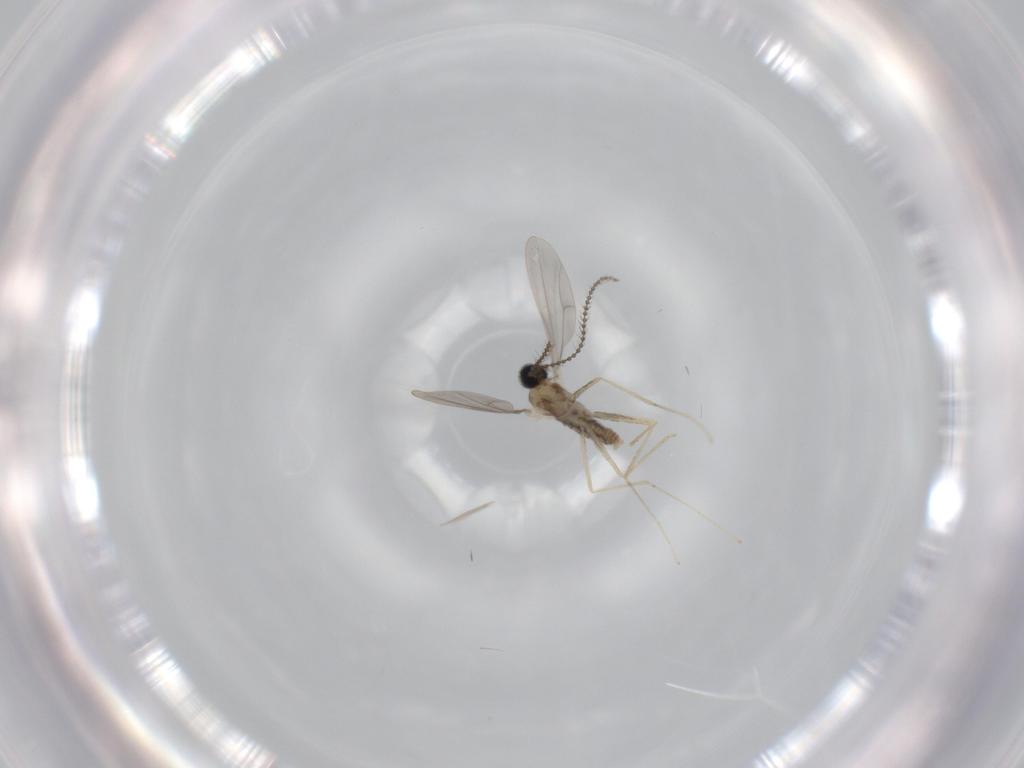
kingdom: Animalia
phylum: Arthropoda
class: Insecta
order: Diptera
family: Cecidomyiidae
